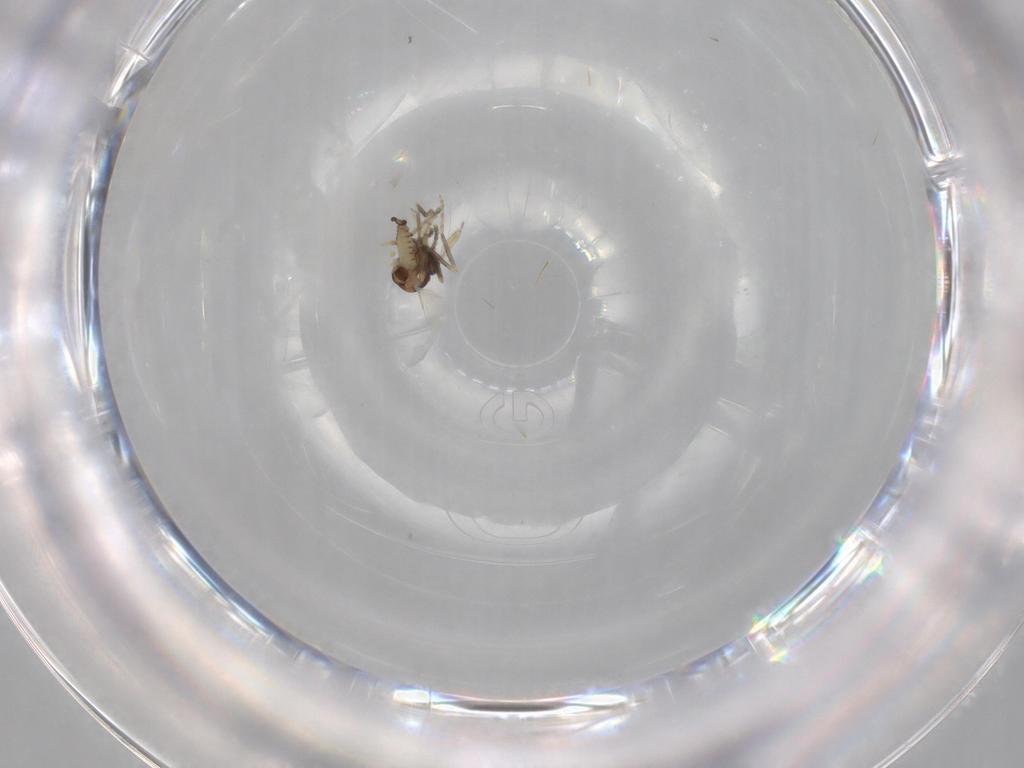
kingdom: Animalia
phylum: Arthropoda
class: Insecta
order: Diptera
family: Ceratopogonidae
